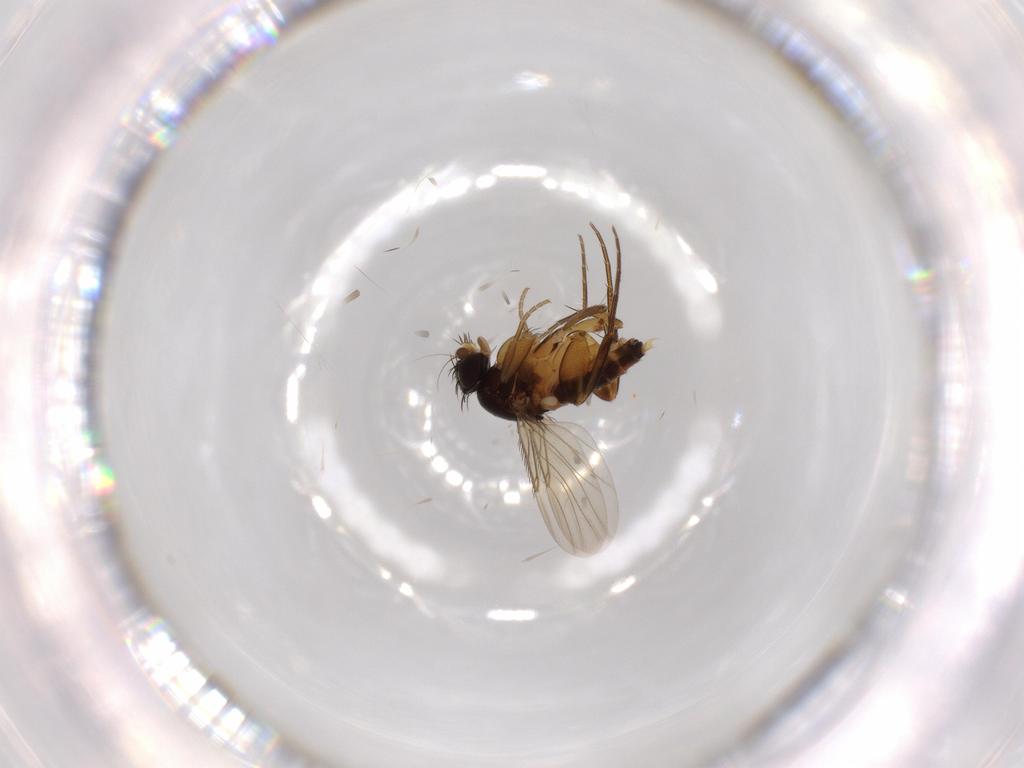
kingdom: Animalia
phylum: Arthropoda
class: Insecta
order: Diptera
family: Phoridae
